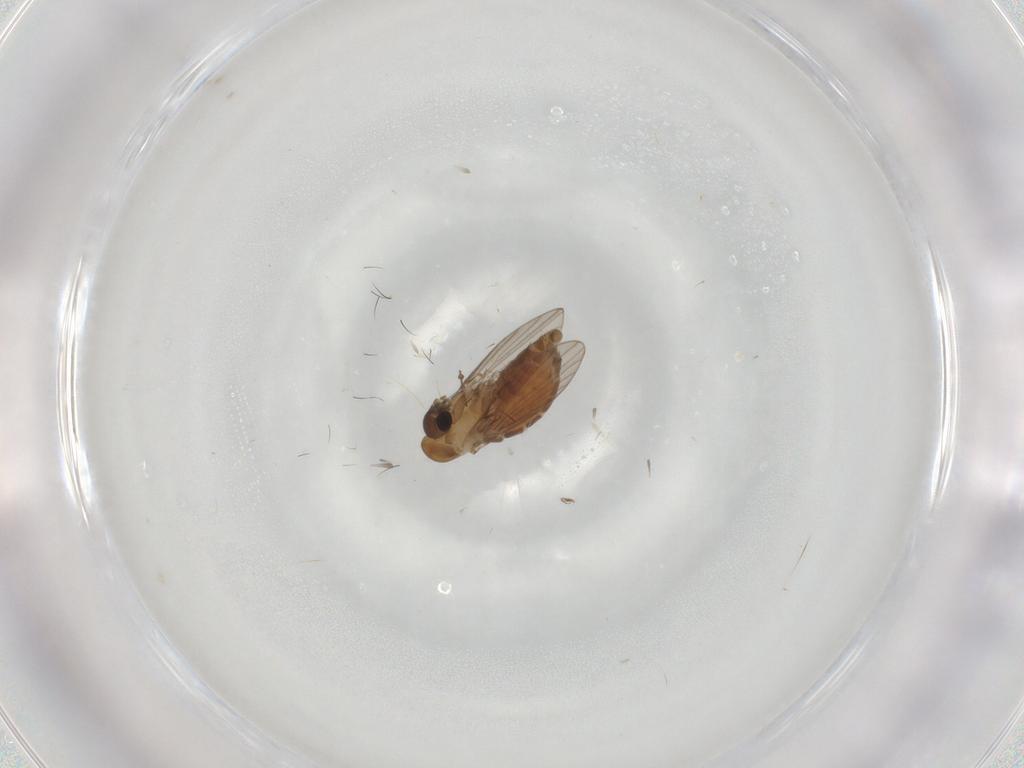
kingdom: Animalia
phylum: Arthropoda
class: Insecta
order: Diptera
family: Cecidomyiidae
